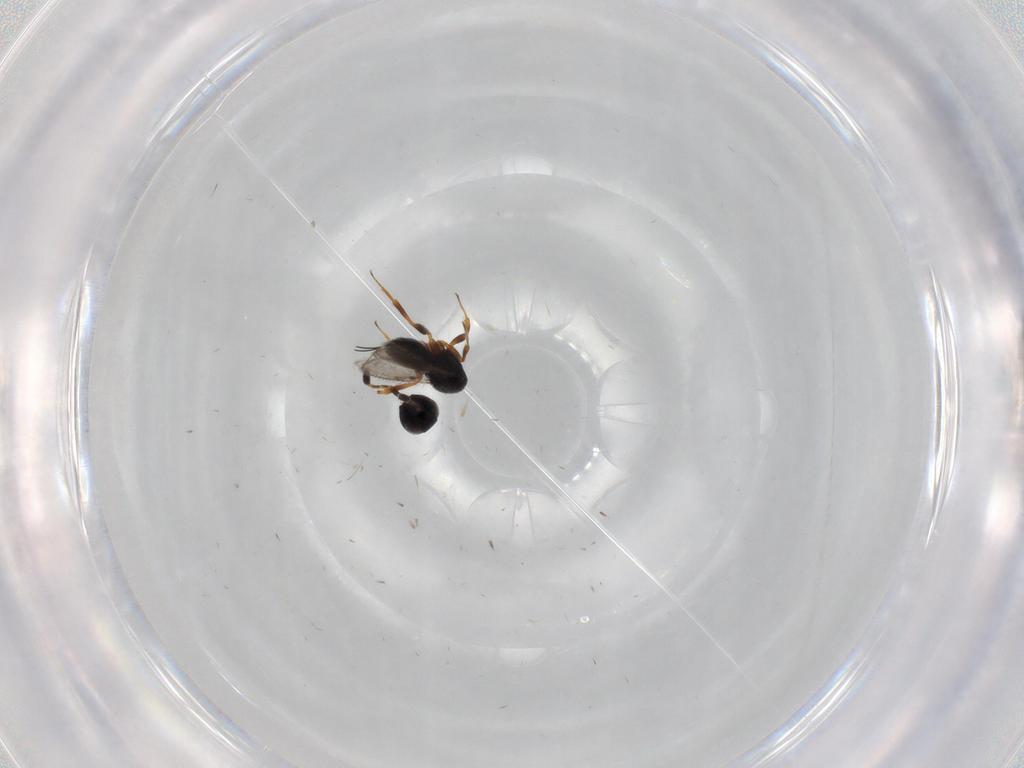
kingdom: Animalia
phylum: Arthropoda
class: Insecta
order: Hymenoptera
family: Scelionidae
